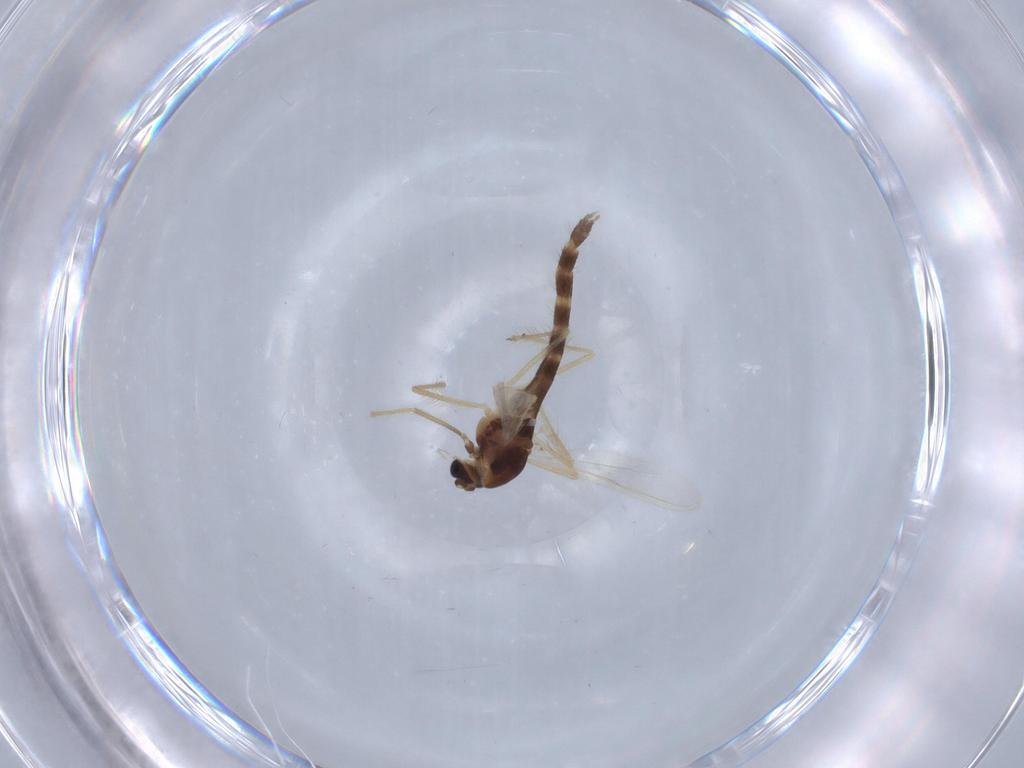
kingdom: Animalia
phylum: Arthropoda
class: Insecta
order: Diptera
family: Chironomidae
